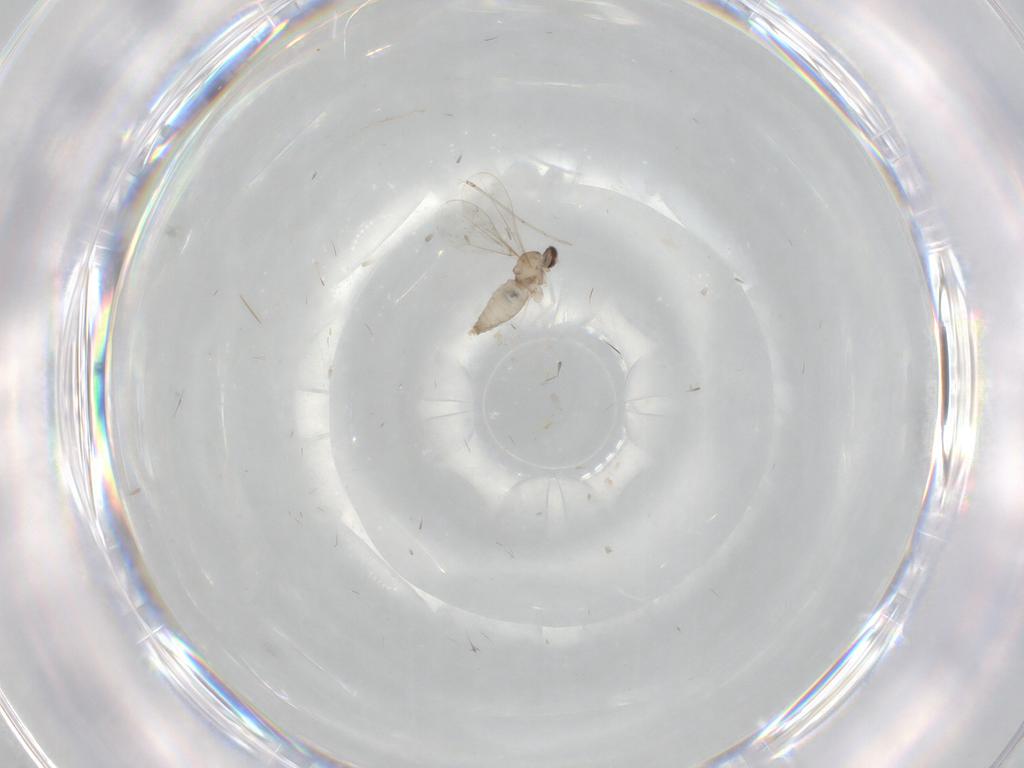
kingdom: Animalia
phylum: Arthropoda
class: Insecta
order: Diptera
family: Cecidomyiidae
